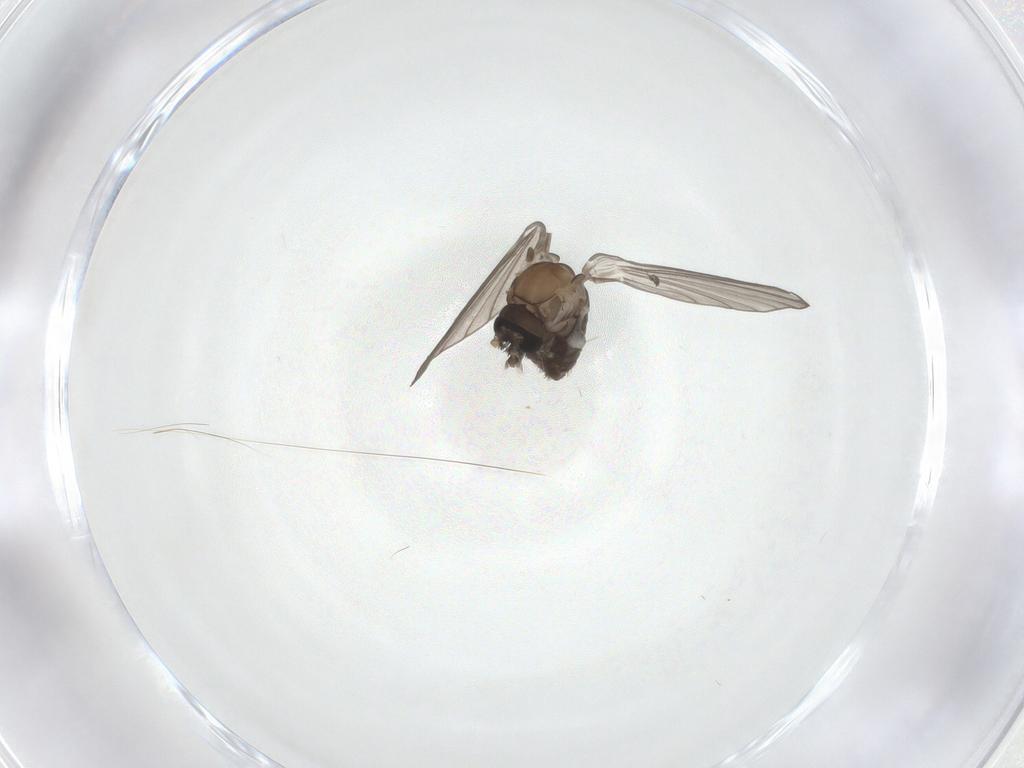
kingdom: Animalia
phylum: Arthropoda
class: Insecta
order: Diptera
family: Psychodidae
